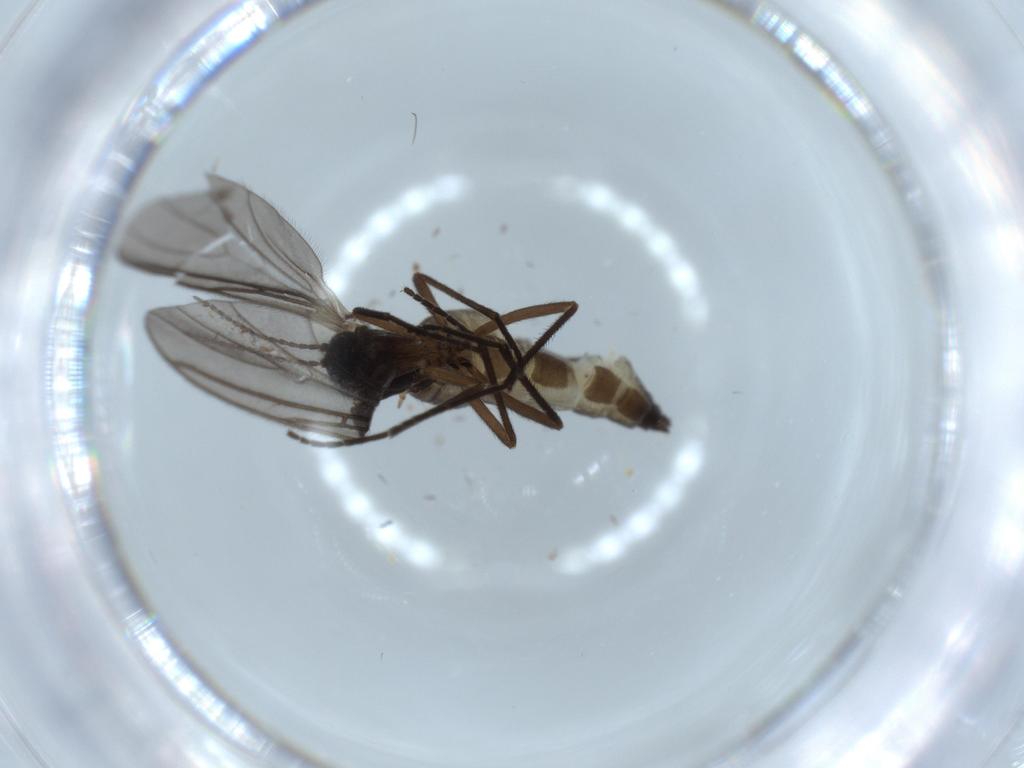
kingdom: Animalia
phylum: Arthropoda
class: Insecta
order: Diptera
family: Sciaridae
